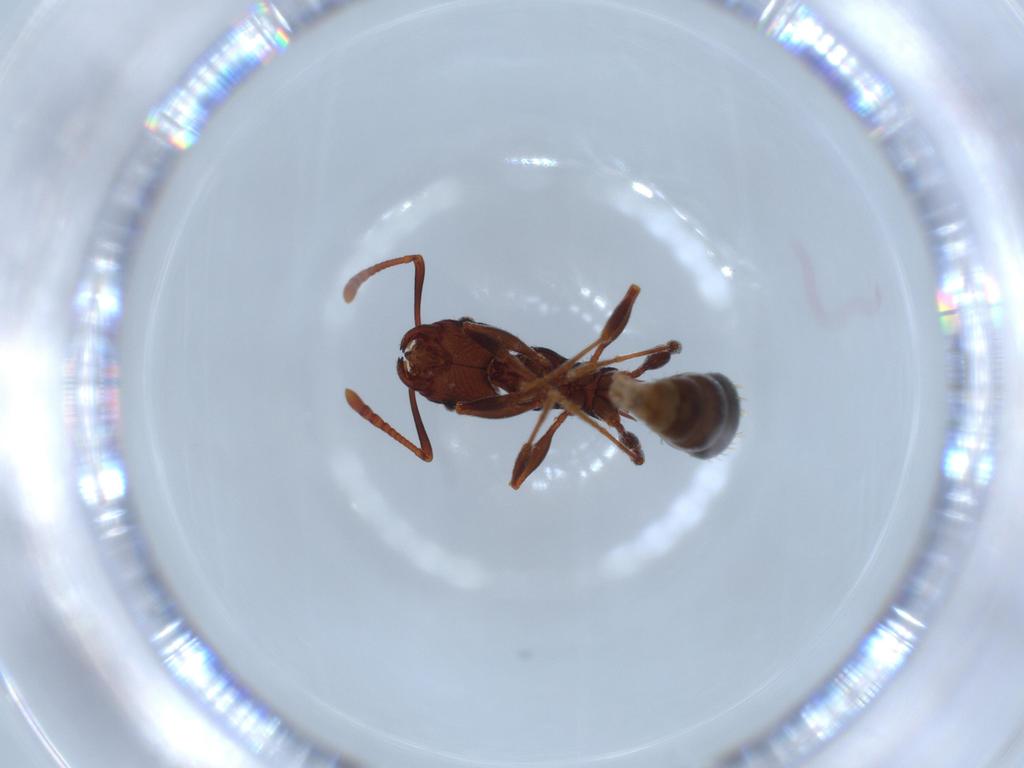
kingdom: Animalia
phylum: Arthropoda
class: Insecta
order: Hymenoptera
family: Formicidae
